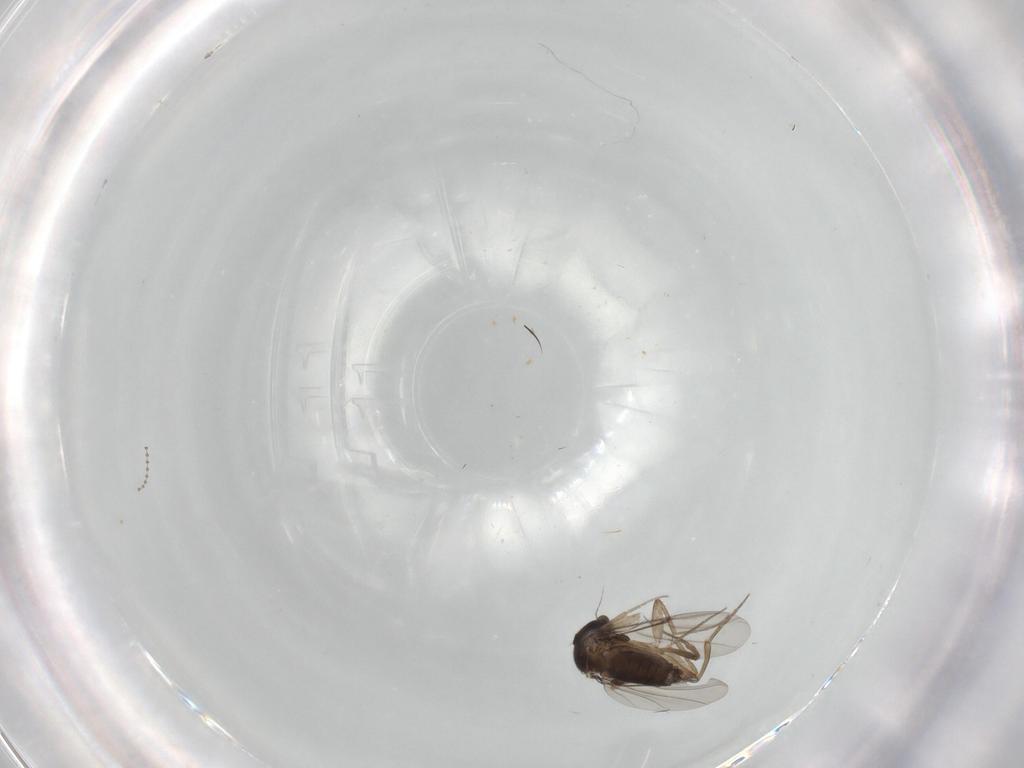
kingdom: Animalia
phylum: Arthropoda
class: Insecta
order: Diptera
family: Phoridae
